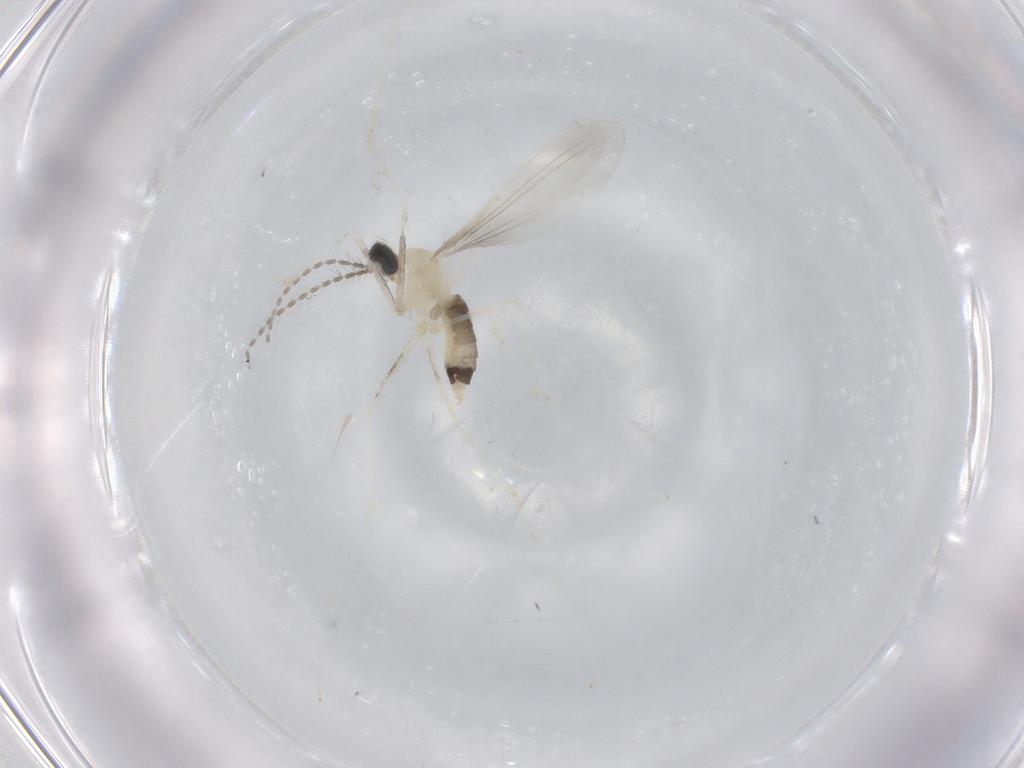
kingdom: Animalia
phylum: Arthropoda
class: Insecta
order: Diptera
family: Cecidomyiidae
